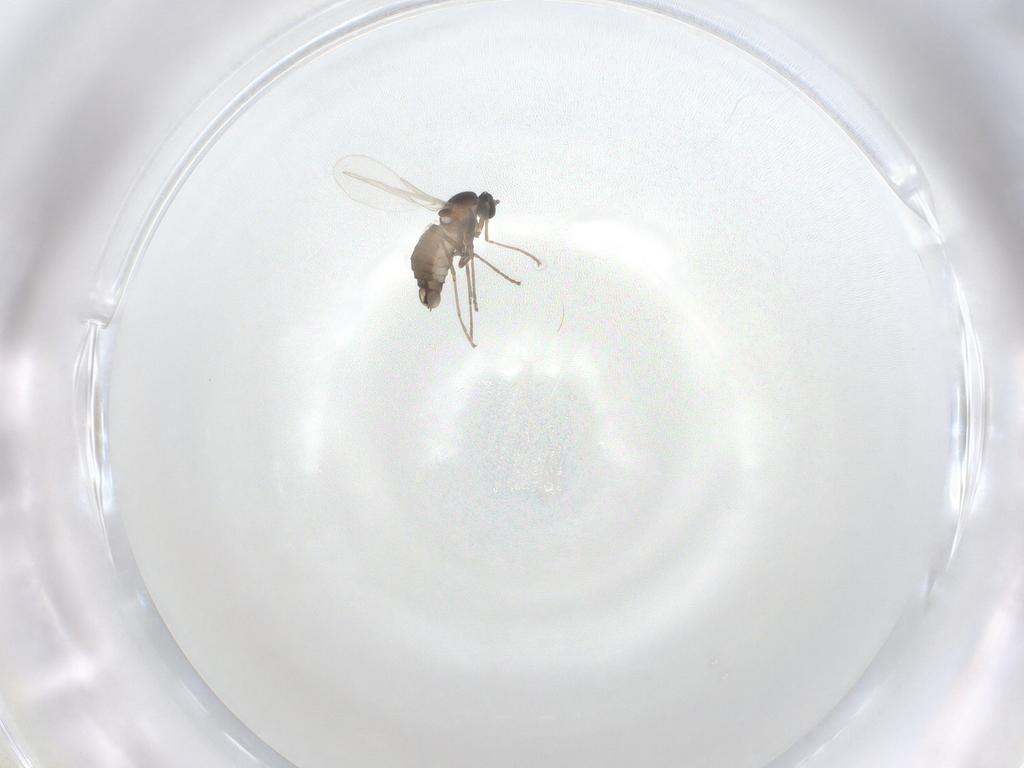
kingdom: Animalia
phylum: Arthropoda
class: Insecta
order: Diptera
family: Cecidomyiidae
